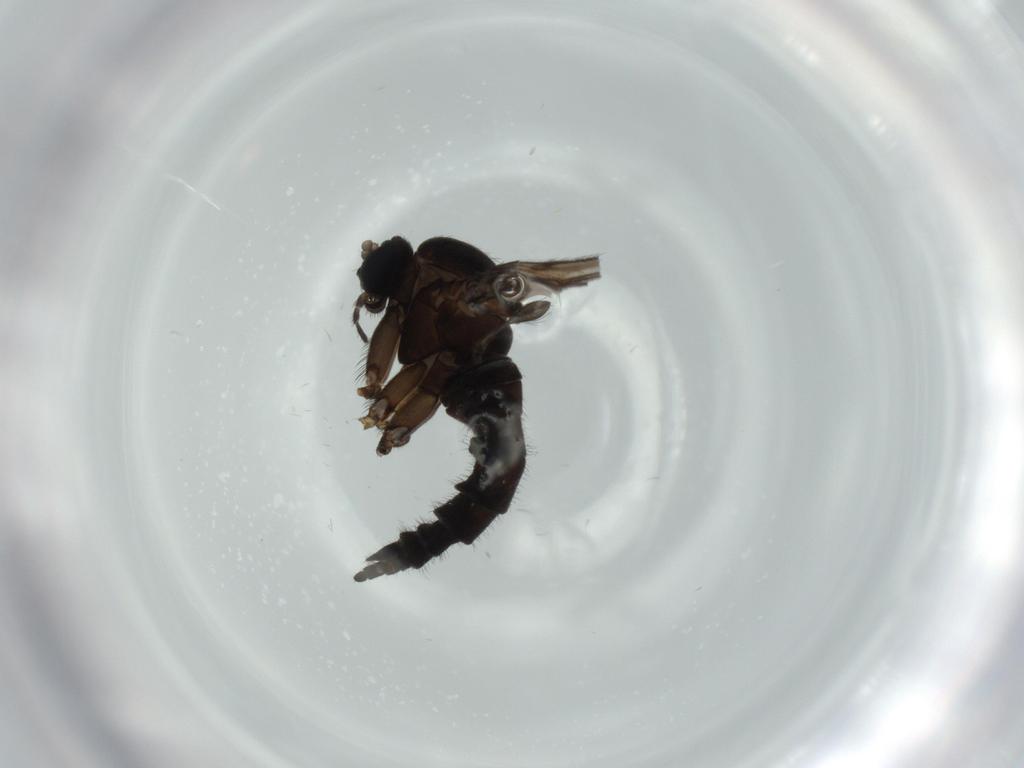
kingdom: Animalia
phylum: Arthropoda
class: Insecta
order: Diptera
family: Sciaridae
